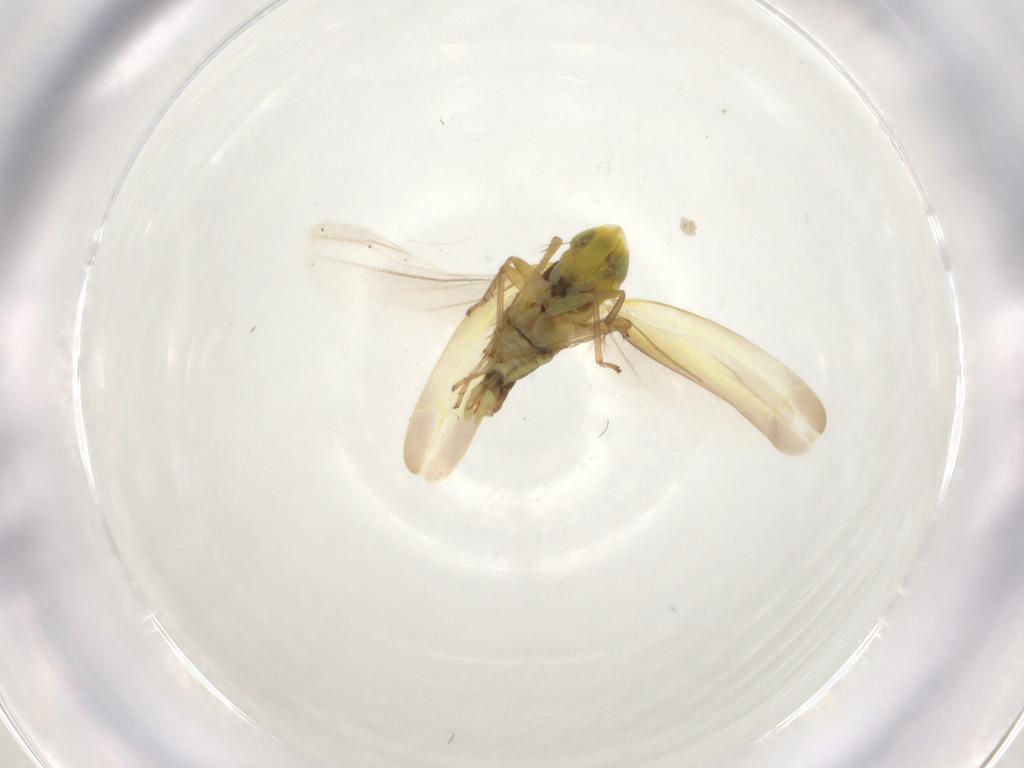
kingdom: Animalia
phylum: Arthropoda
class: Insecta
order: Hemiptera
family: Cicadellidae
